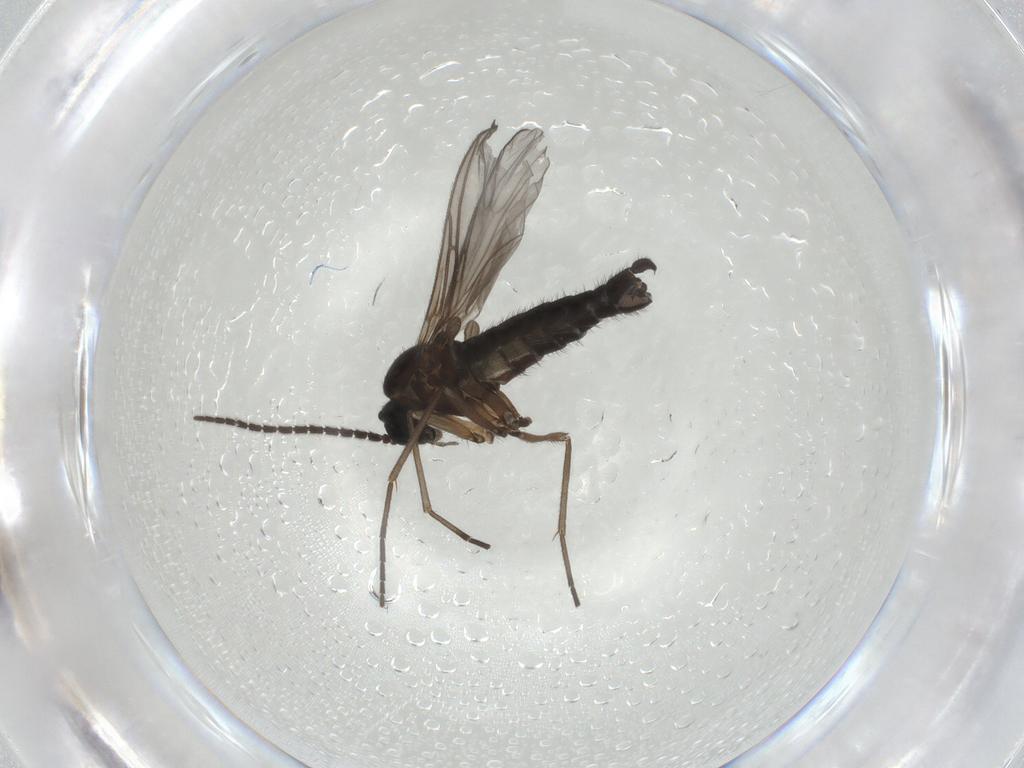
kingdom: Animalia
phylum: Arthropoda
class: Insecta
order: Diptera
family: Sciaridae
